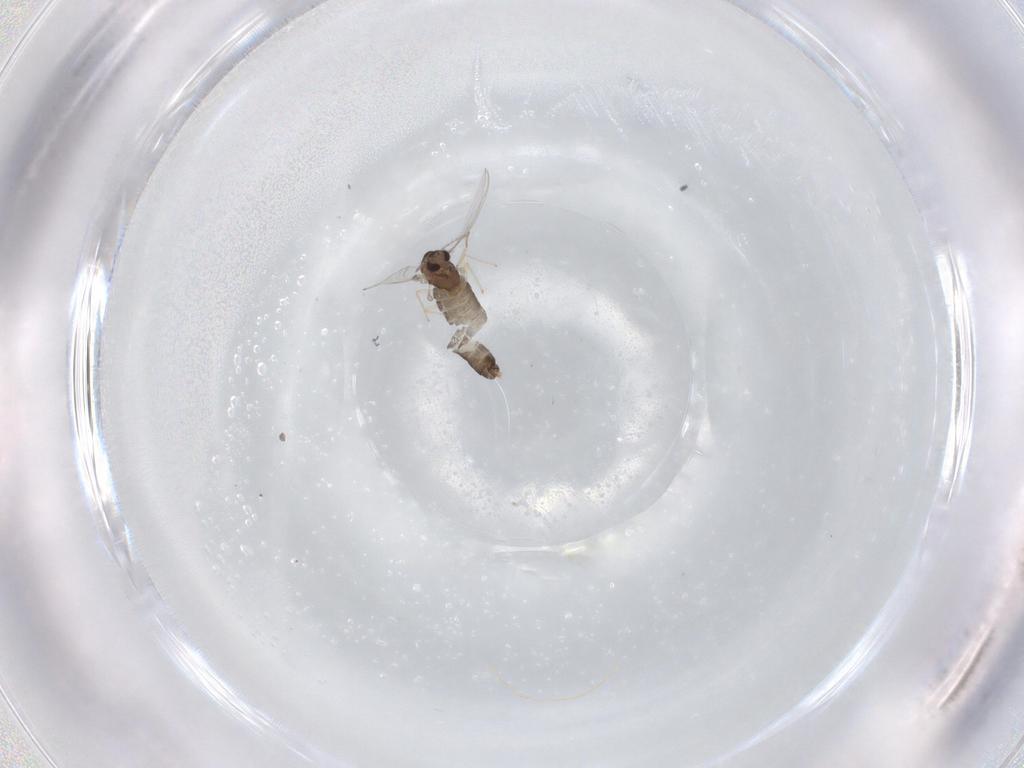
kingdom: Animalia
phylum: Arthropoda
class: Insecta
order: Diptera
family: Chironomidae
